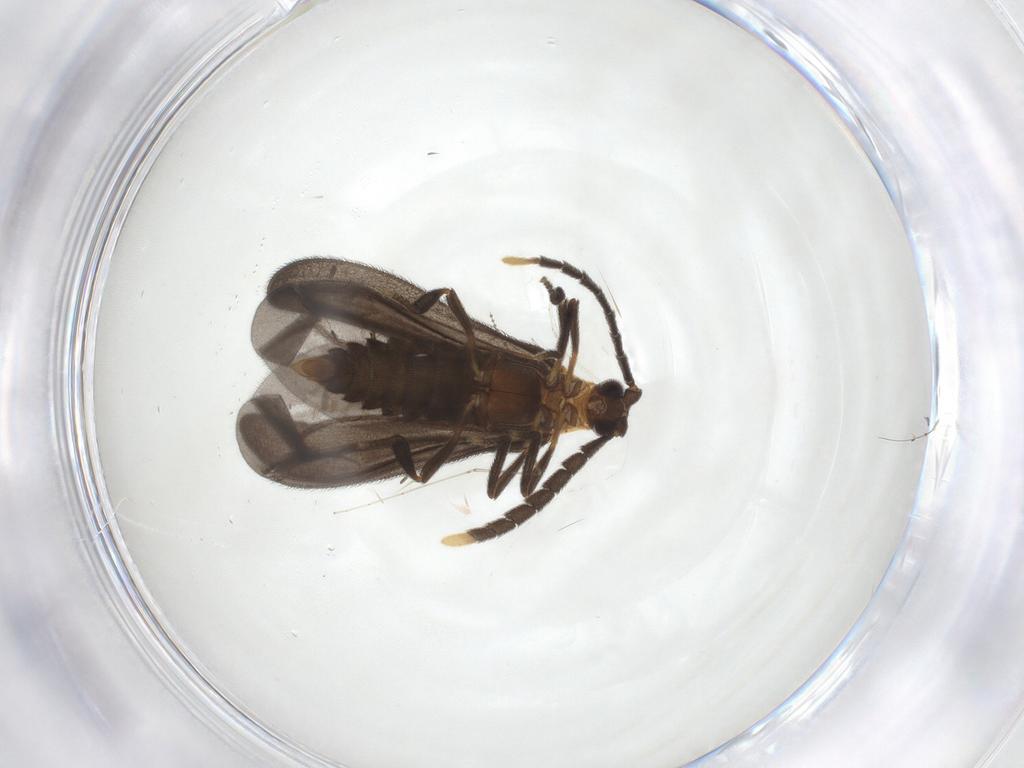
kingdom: Animalia
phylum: Arthropoda
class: Insecta
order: Coleoptera
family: Lycidae
